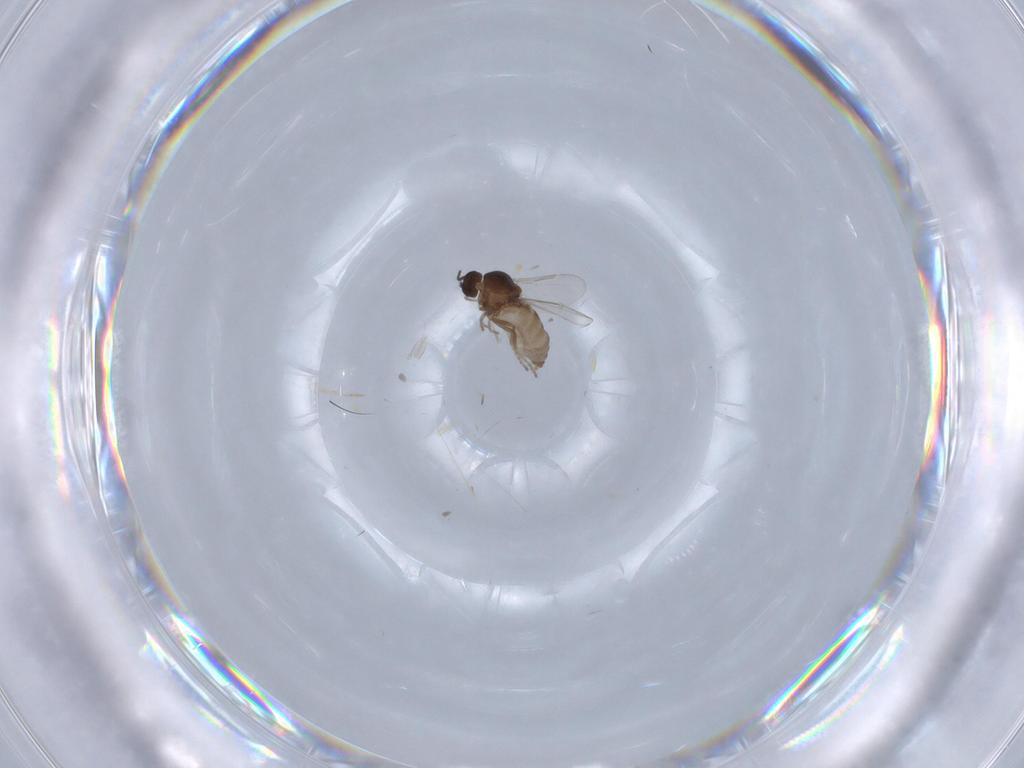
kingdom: Animalia
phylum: Arthropoda
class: Insecta
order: Diptera
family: Ceratopogonidae
